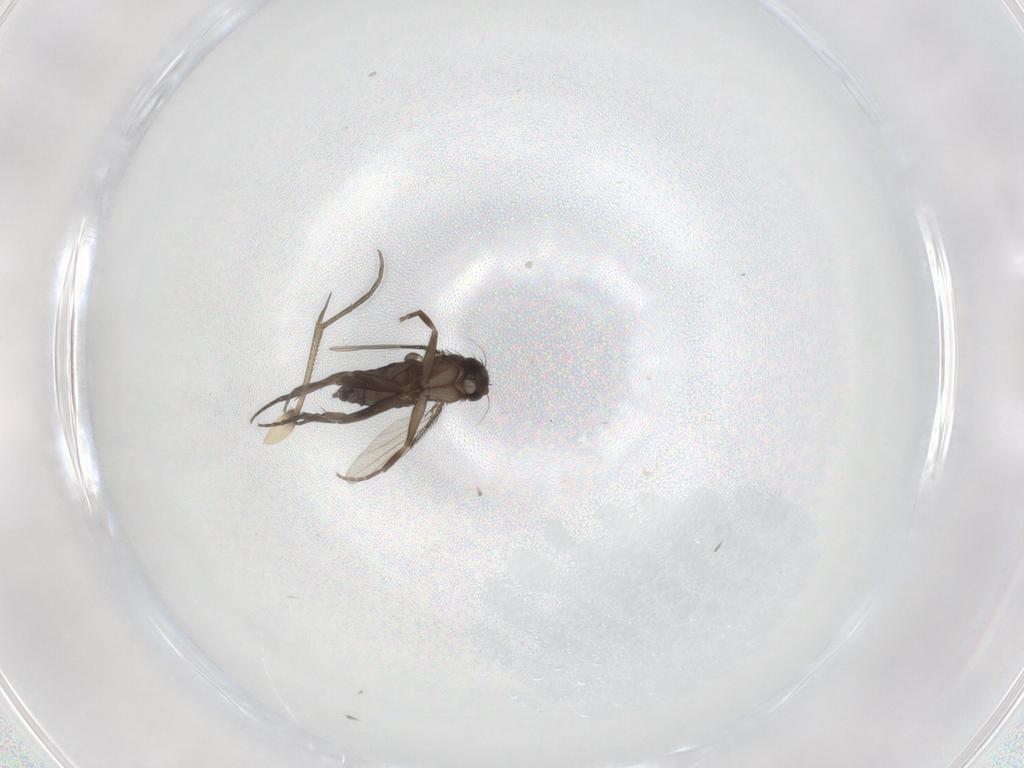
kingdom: Animalia
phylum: Arthropoda
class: Insecta
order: Diptera
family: Phoridae
